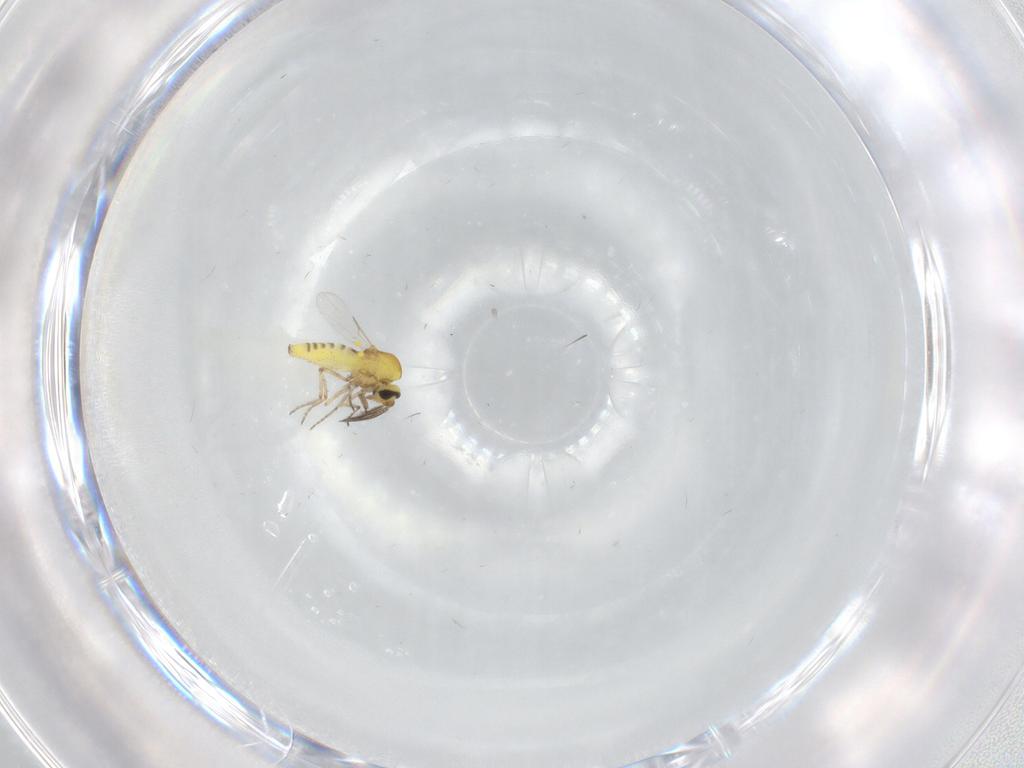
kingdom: Animalia
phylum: Arthropoda
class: Insecta
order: Diptera
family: Ceratopogonidae
